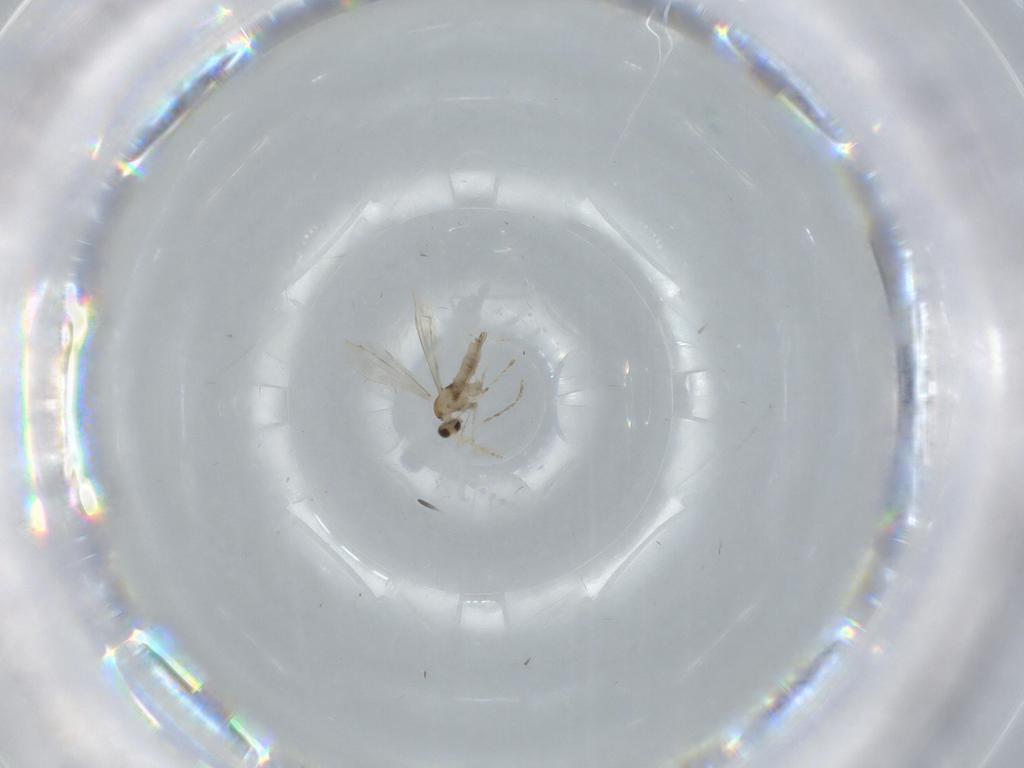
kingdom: Animalia
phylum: Arthropoda
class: Insecta
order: Diptera
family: Cecidomyiidae
